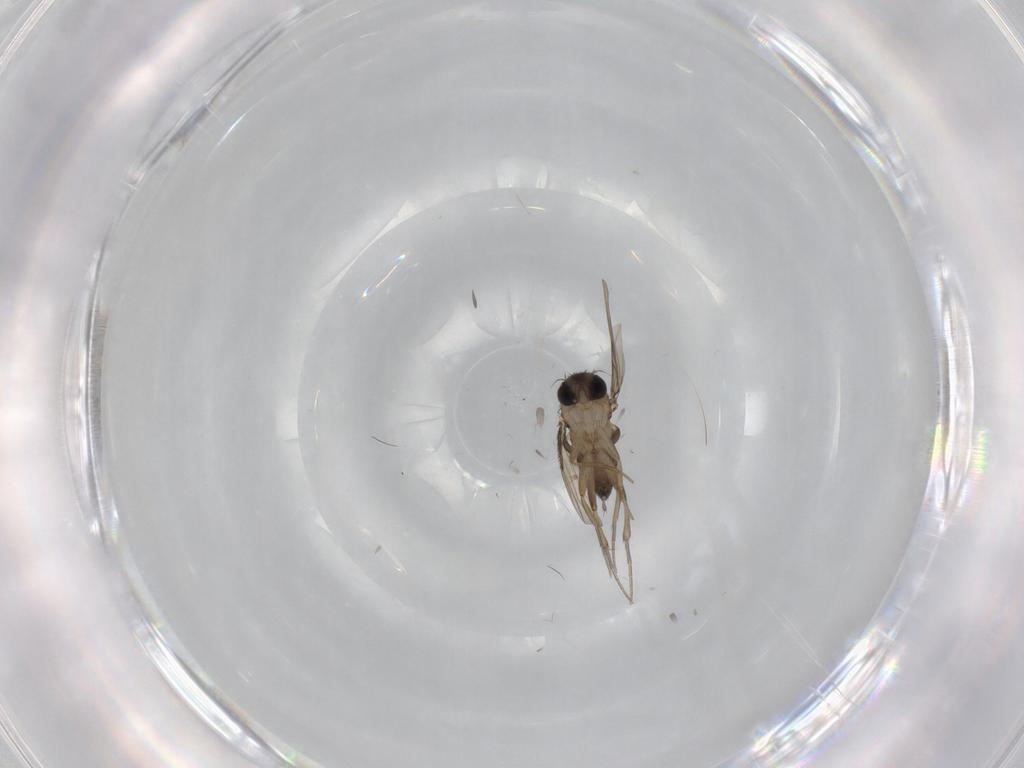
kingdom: Animalia
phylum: Arthropoda
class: Insecta
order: Diptera
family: Phoridae
